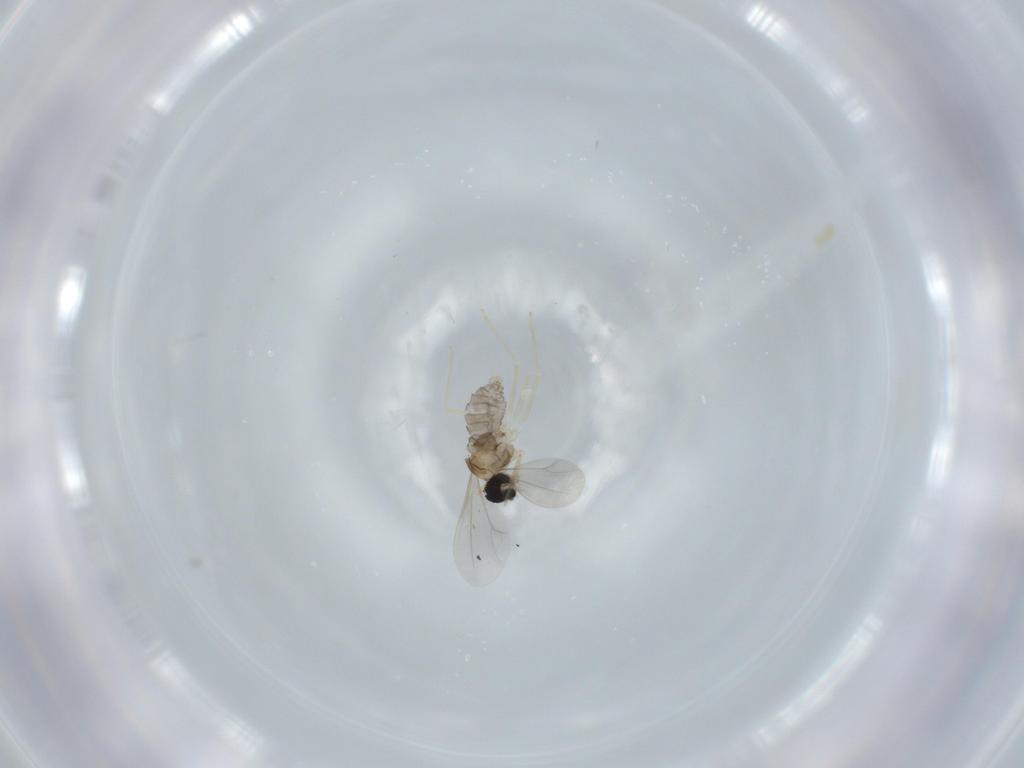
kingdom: Animalia
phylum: Arthropoda
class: Insecta
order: Diptera
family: Cecidomyiidae
